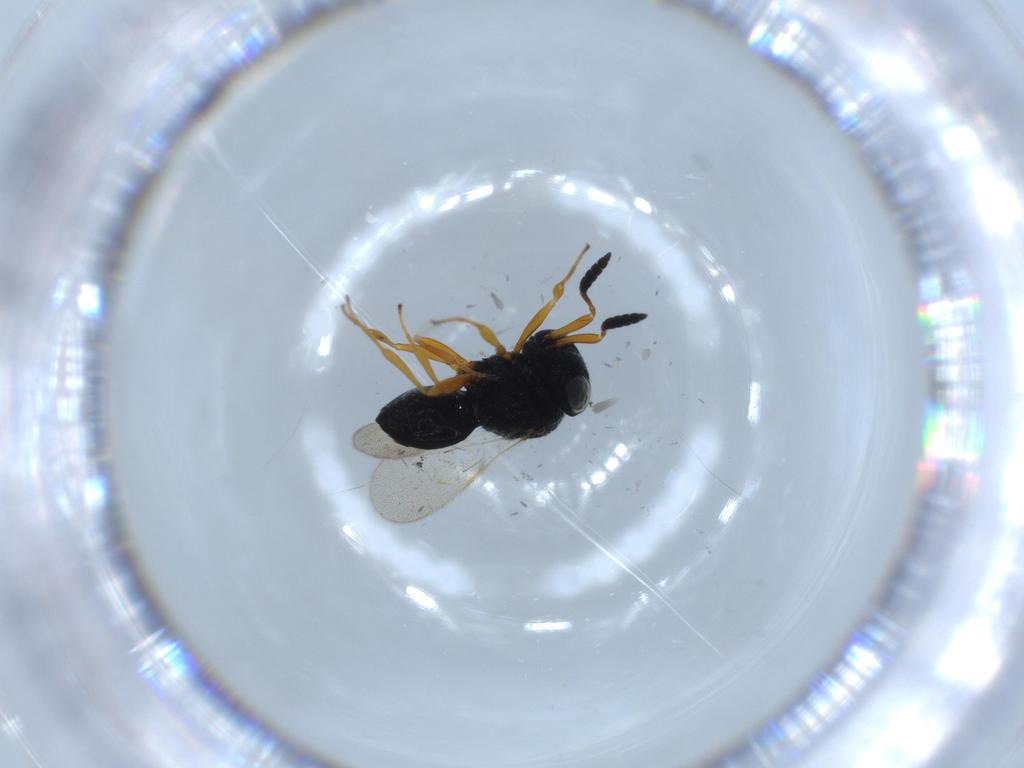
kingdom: Animalia
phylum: Arthropoda
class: Insecta
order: Hymenoptera
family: Scelionidae
